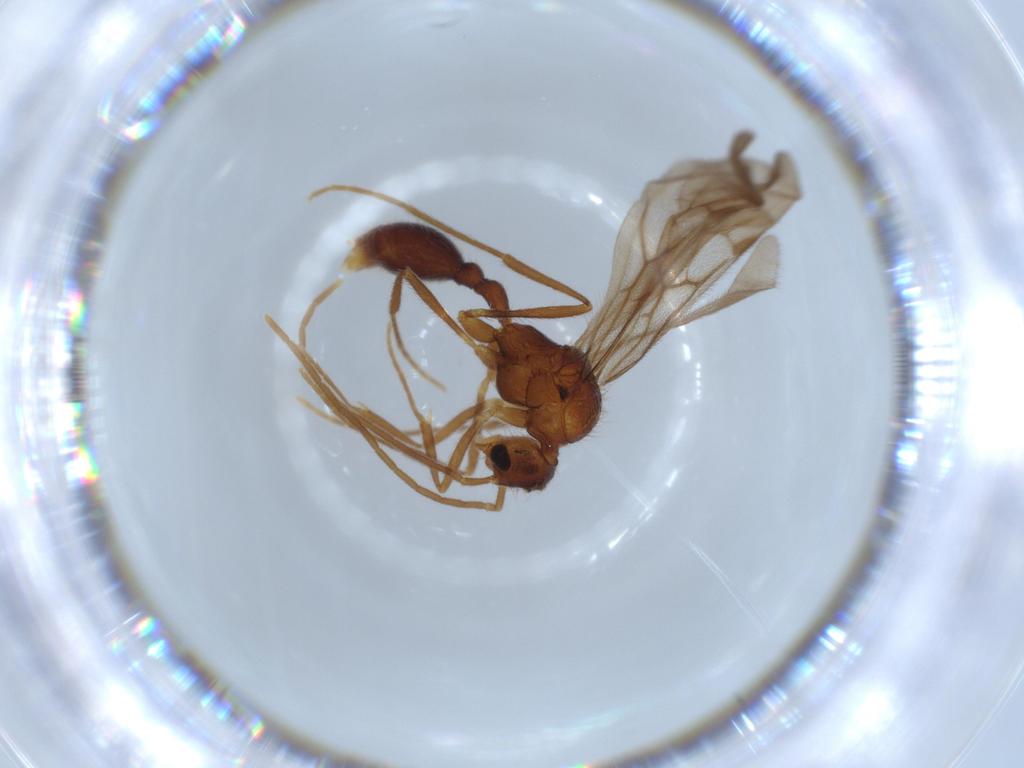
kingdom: Animalia
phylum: Arthropoda
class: Insecta
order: Hymenoptera
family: Formicidae
